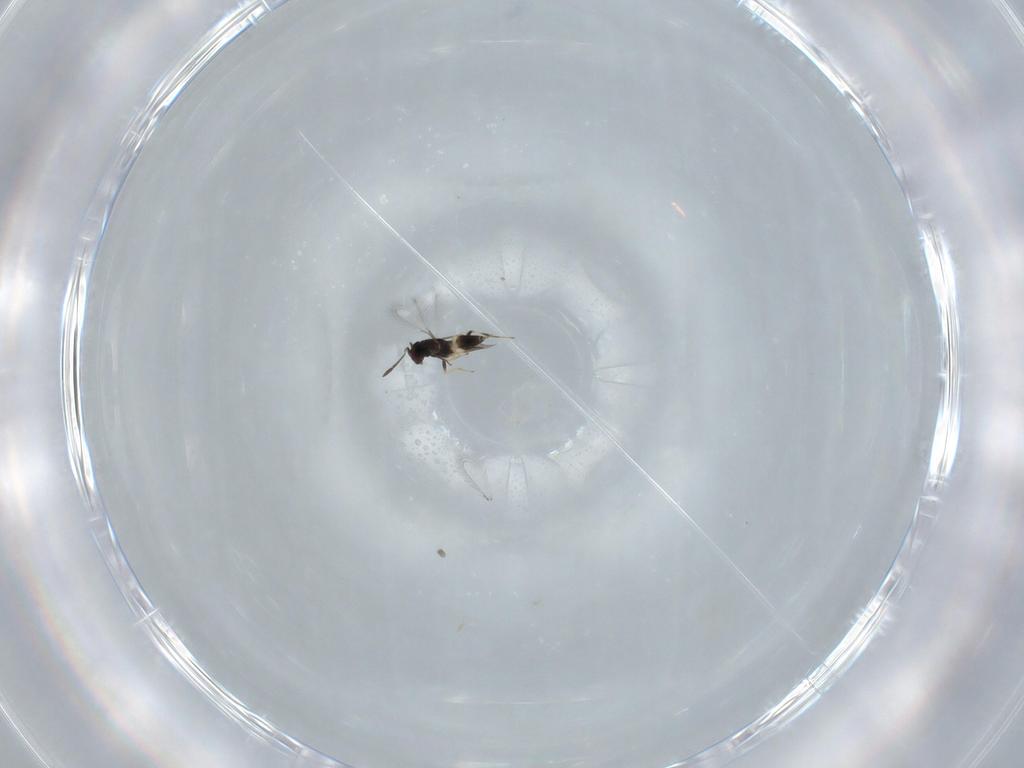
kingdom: Animalia
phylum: Arthropoda
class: Insecta
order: Hymenoptera
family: Mymaridae
